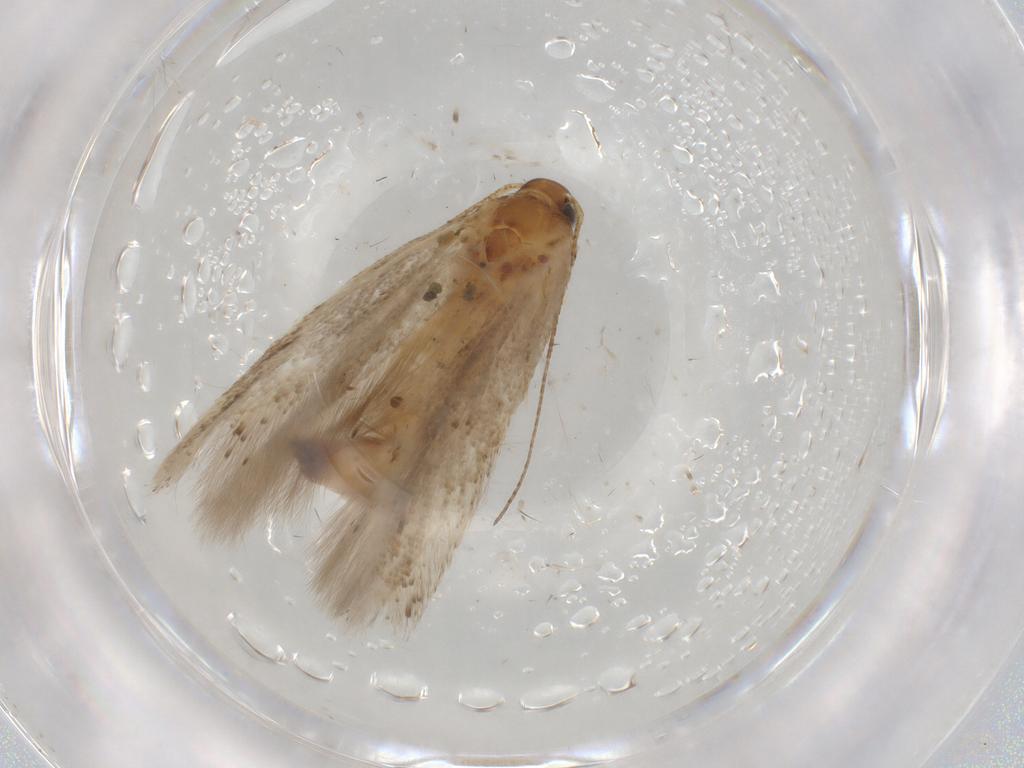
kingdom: Animalia
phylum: Arthropoda
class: Insecta
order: Lepidoptera
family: Gelechiidae
